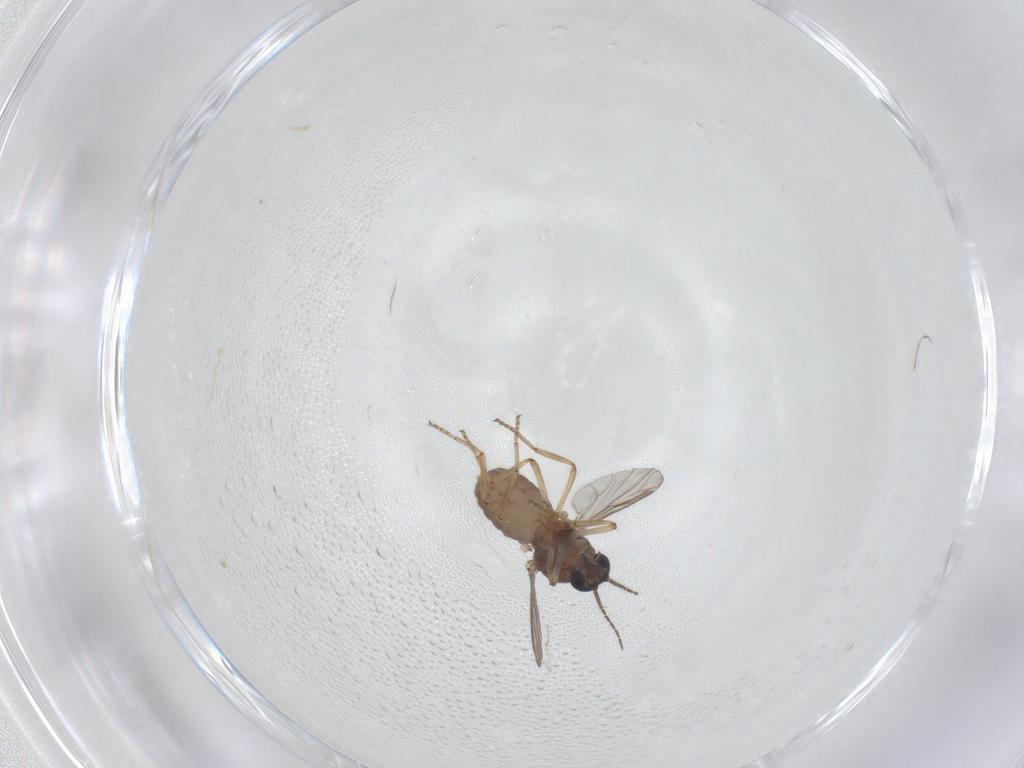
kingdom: Animalia
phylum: Arthropoda
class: Insecta
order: Diptera
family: Ceratopogonidae
